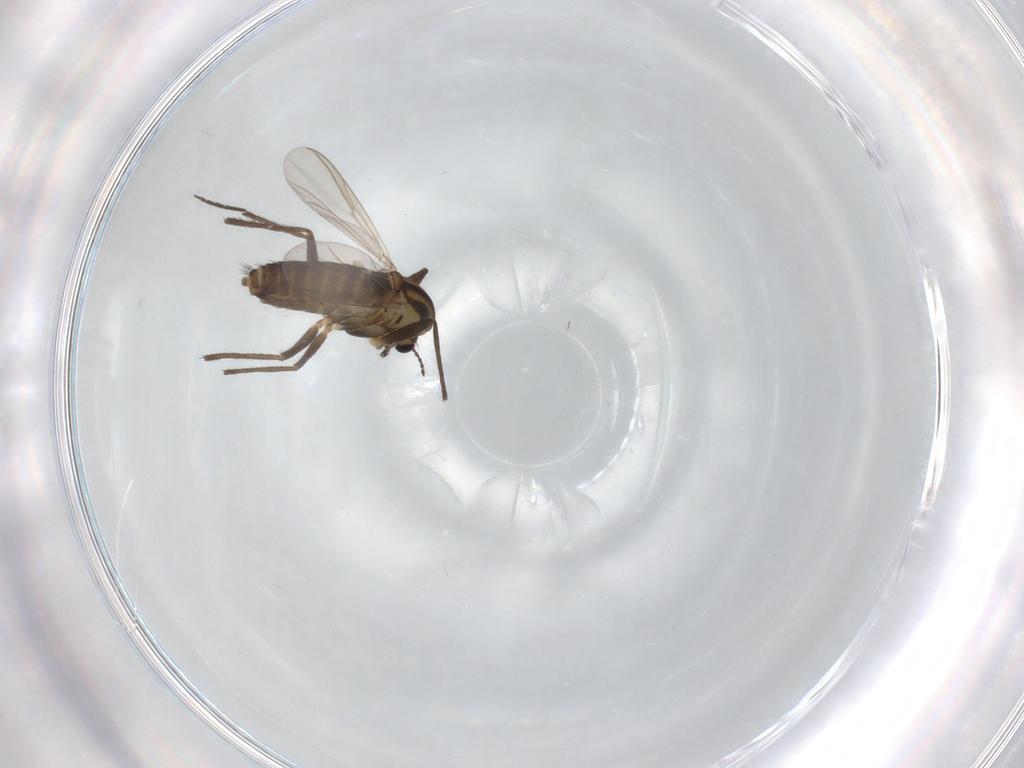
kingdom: Animalia
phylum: Arthropoda
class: Insecta
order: Diptera
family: Chironomidae
